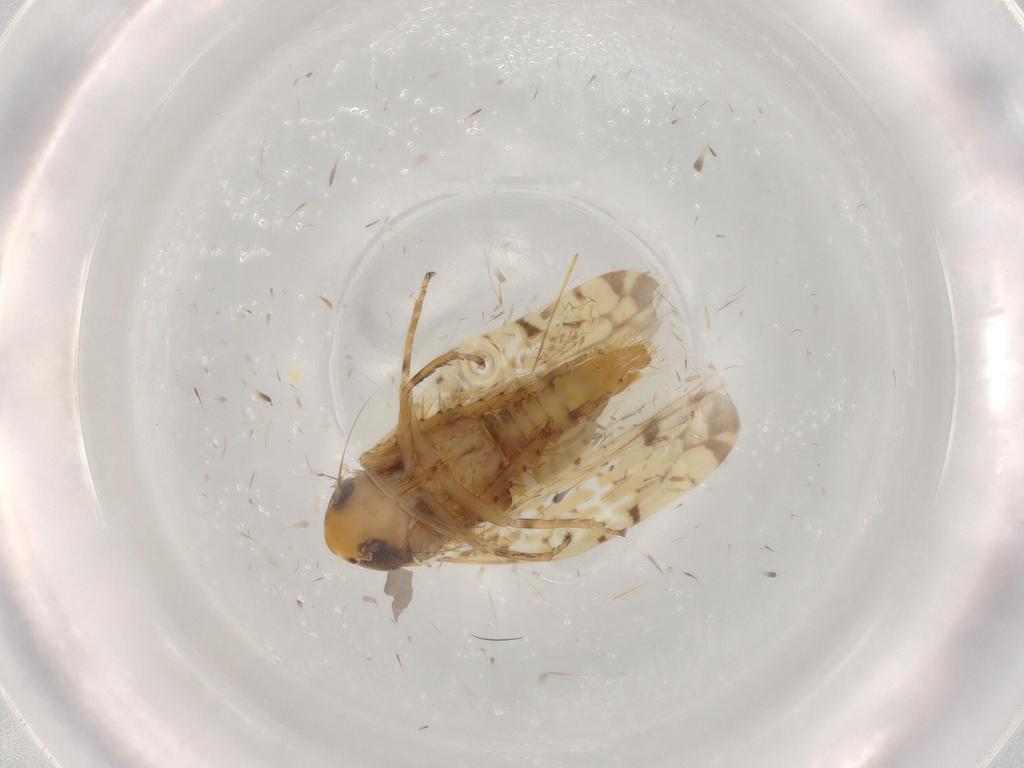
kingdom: Animalia
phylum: Arthropoda
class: Insecta
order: Hemiptera
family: Cicadellidae
